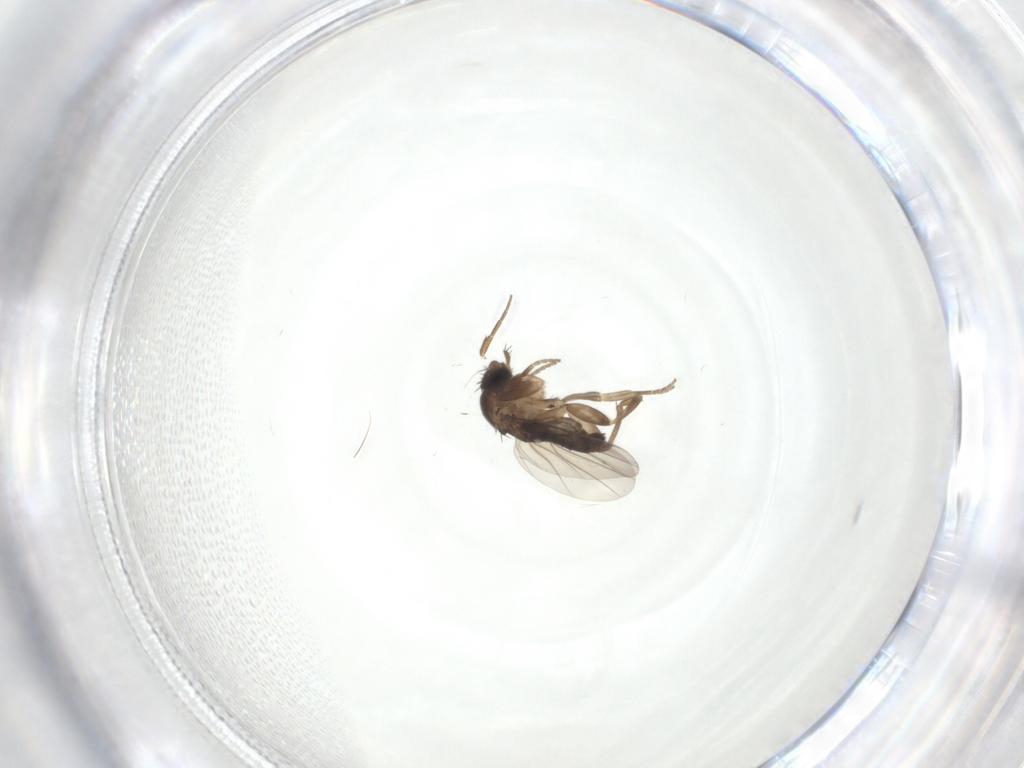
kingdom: Animalia
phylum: Arthropoda
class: Insecta
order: Diptera
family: Phoridae
